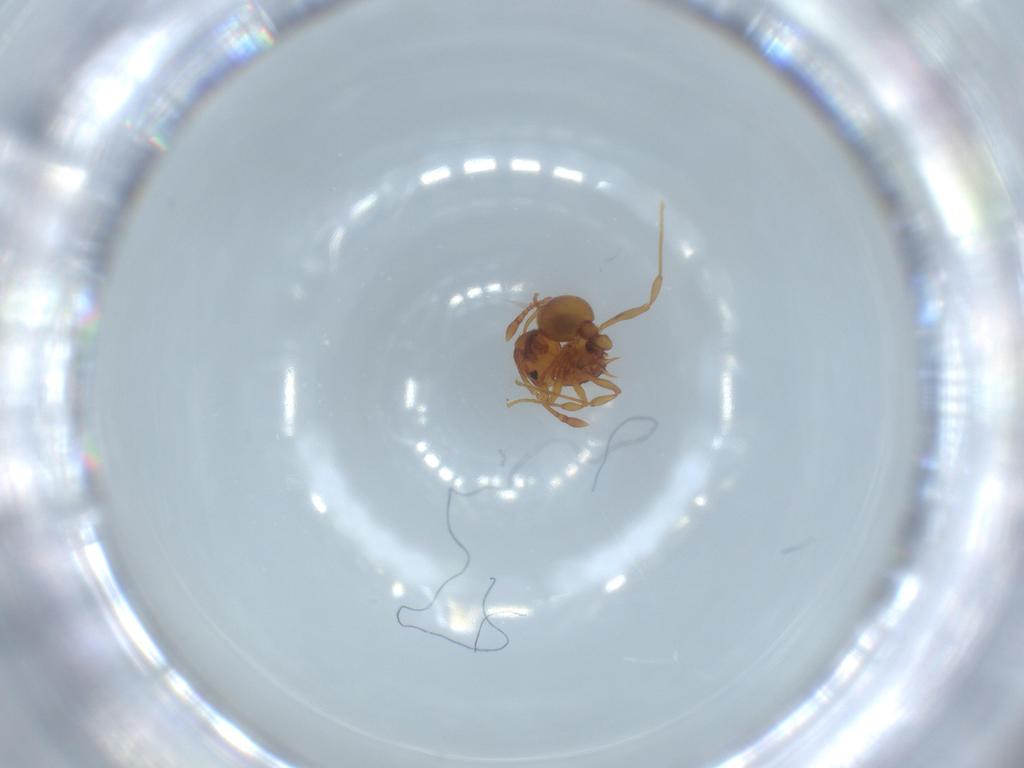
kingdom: Animalia
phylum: Arthropoda
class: Insecta
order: Hymenoptera
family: Formicidae
